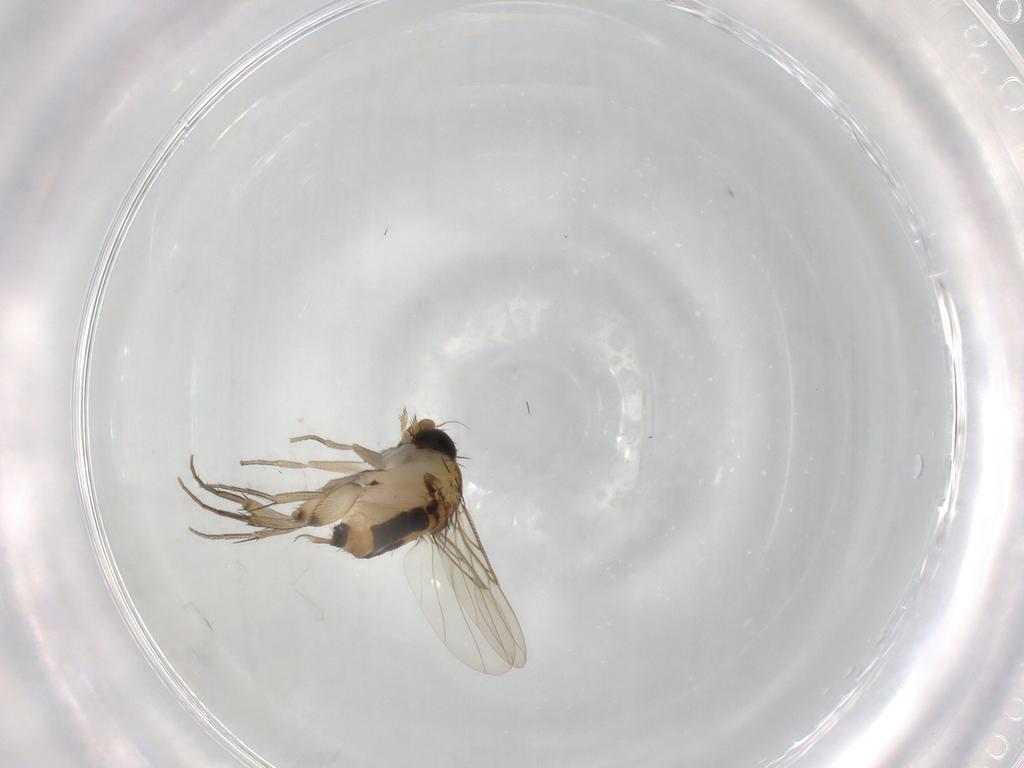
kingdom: Animalia
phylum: Arthropoda
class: Insecta
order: Diptera
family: Phoridae
